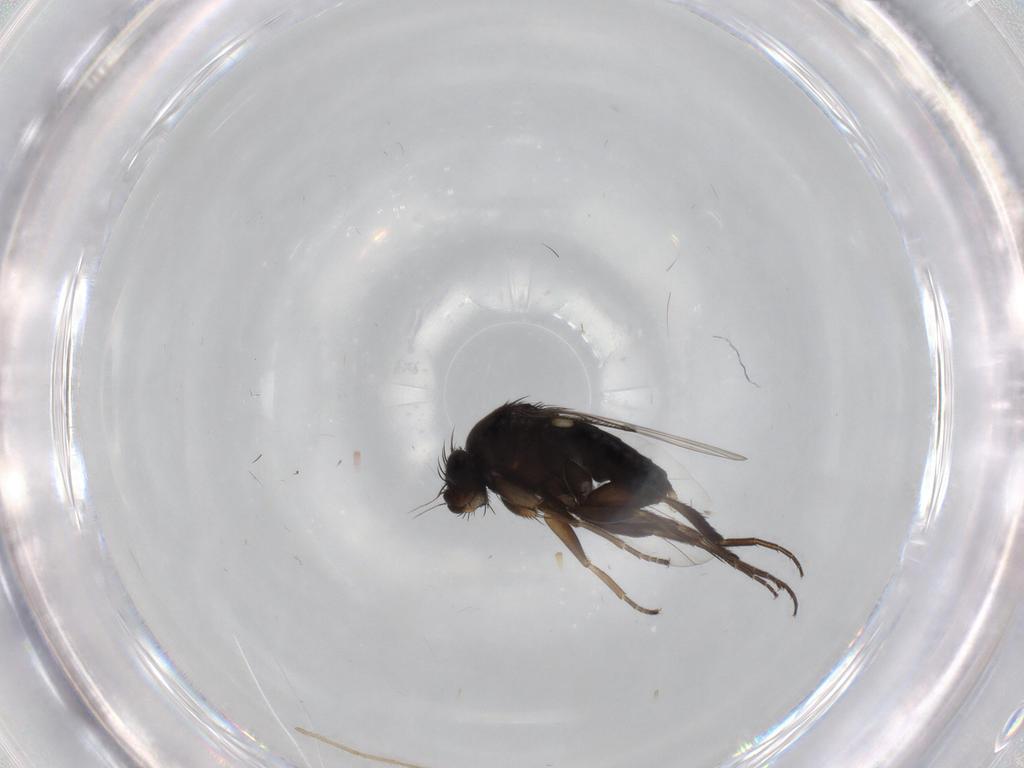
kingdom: Animalia
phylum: Arthropoda
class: Insecta
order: Diptera
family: Phoridae
